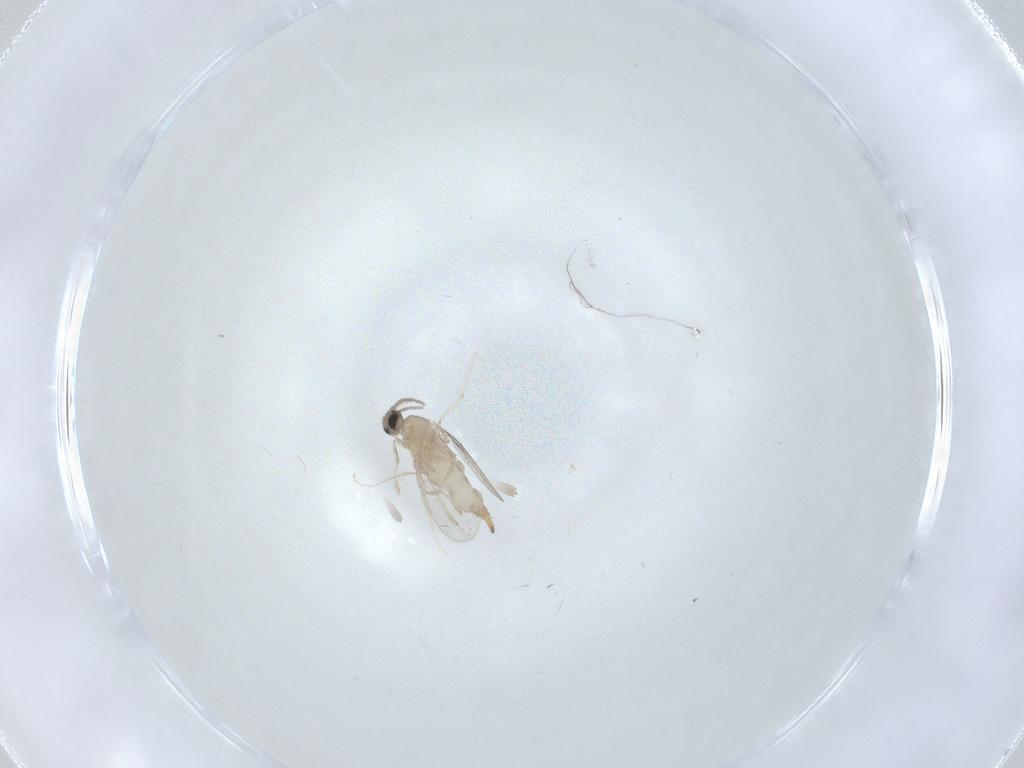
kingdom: Animalia
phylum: Arthropoda
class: Insecta
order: Diptera
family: Cecidomyiidae
